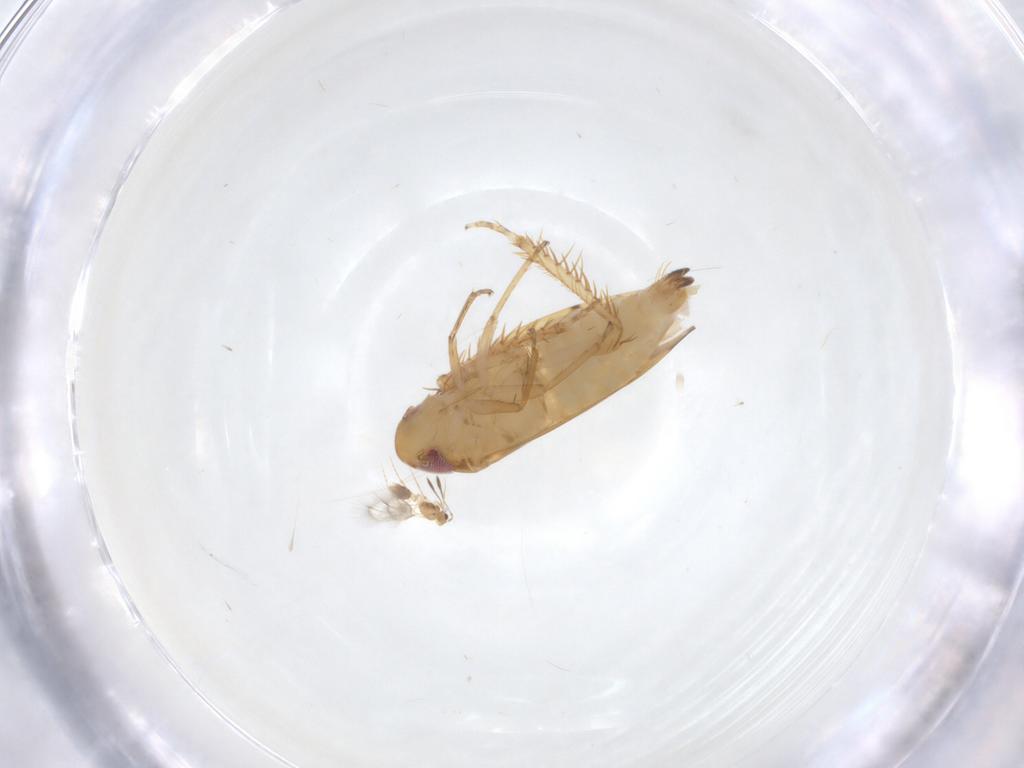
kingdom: Animalia
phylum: Arthropoda
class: Insecta
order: Hemiptera
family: Cicadellidae
